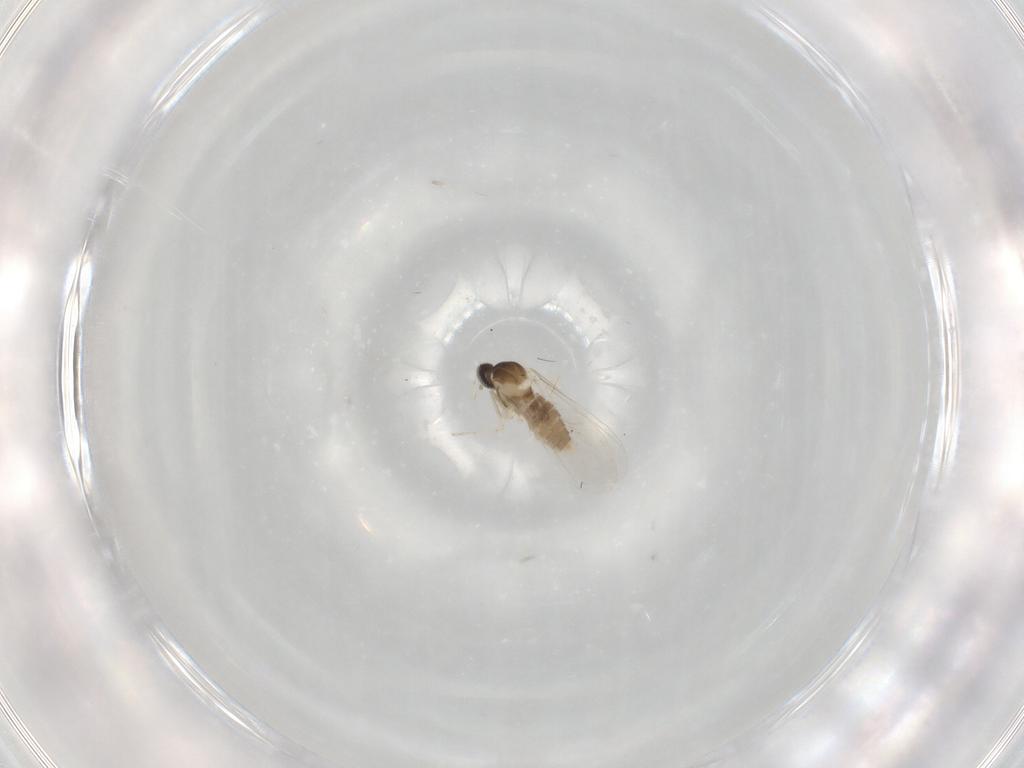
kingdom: Animalia
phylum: Arthropoda
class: Insecta
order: Diptera
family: Cecidomyiidae
